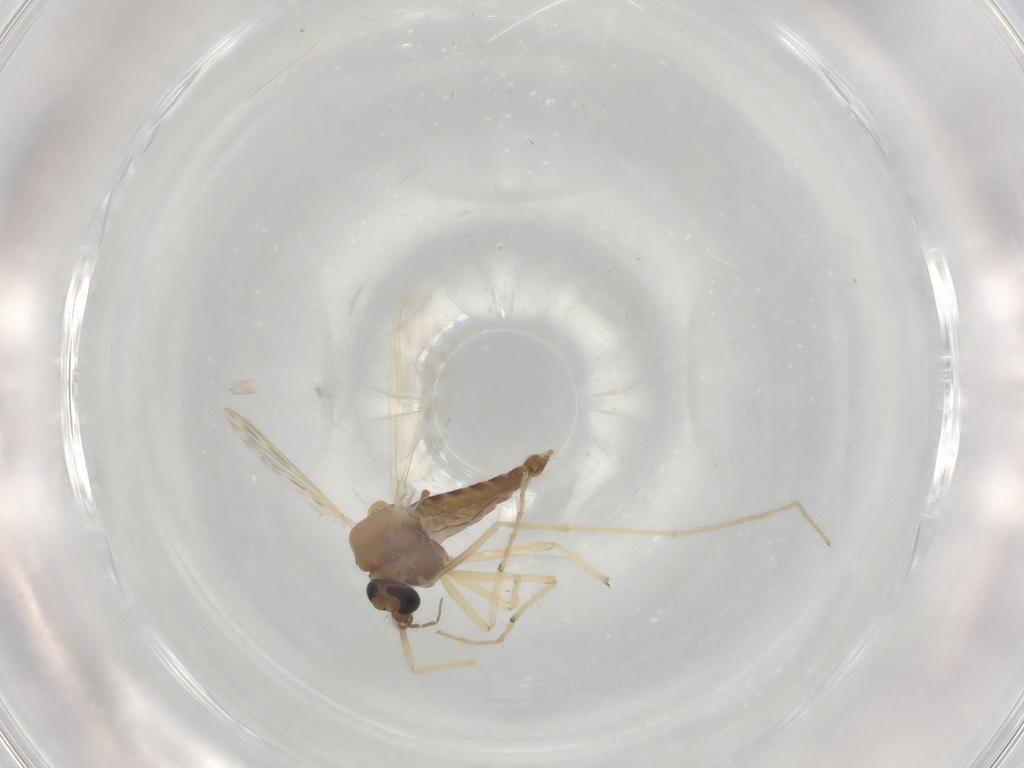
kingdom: Animalia
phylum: Arthropoda
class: Insecta
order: Diptera
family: Chironomidae
